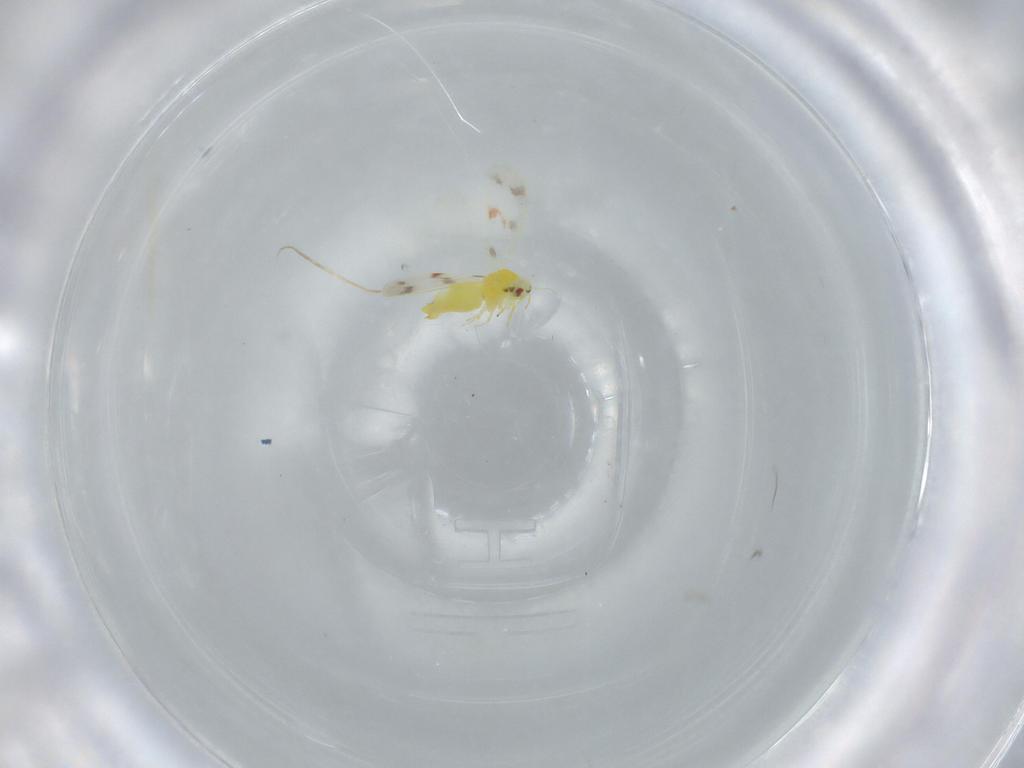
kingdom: Animalia
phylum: Arthropoda
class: Insecta
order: Hemiptera
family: Aleyrodidae
